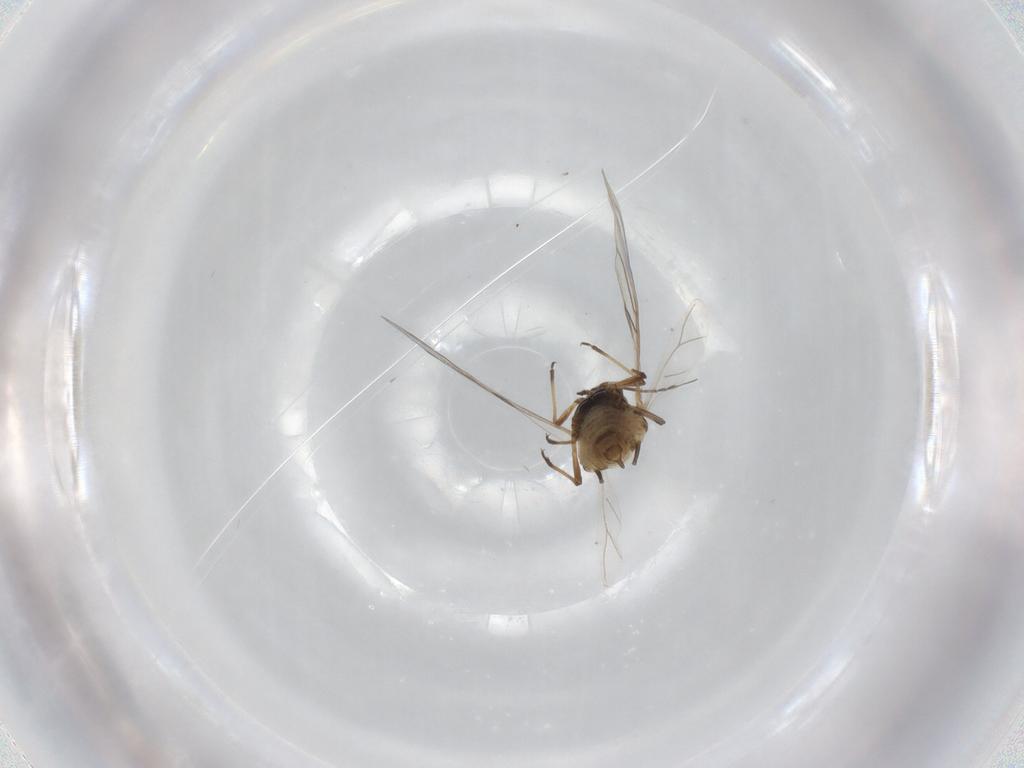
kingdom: Animalia
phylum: Arthropoda
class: Insecta
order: Hemiptera
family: Aphididae
